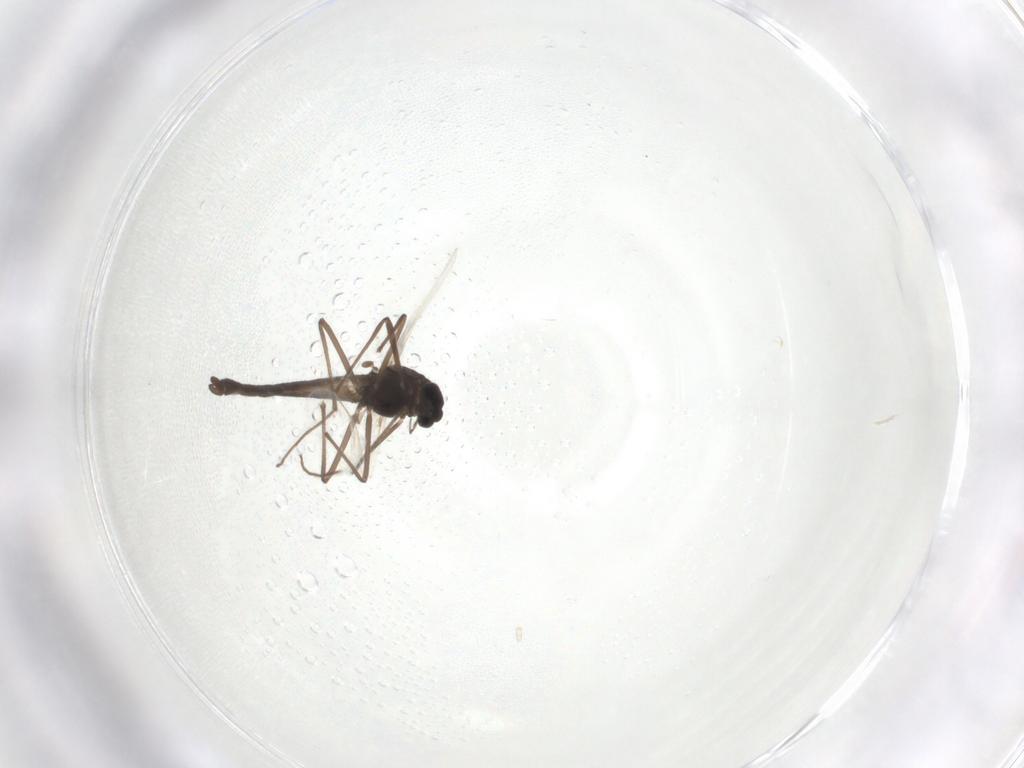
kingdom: Animalia
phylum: Arthropoda
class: Insecta
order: Diptera
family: Chironomidae
